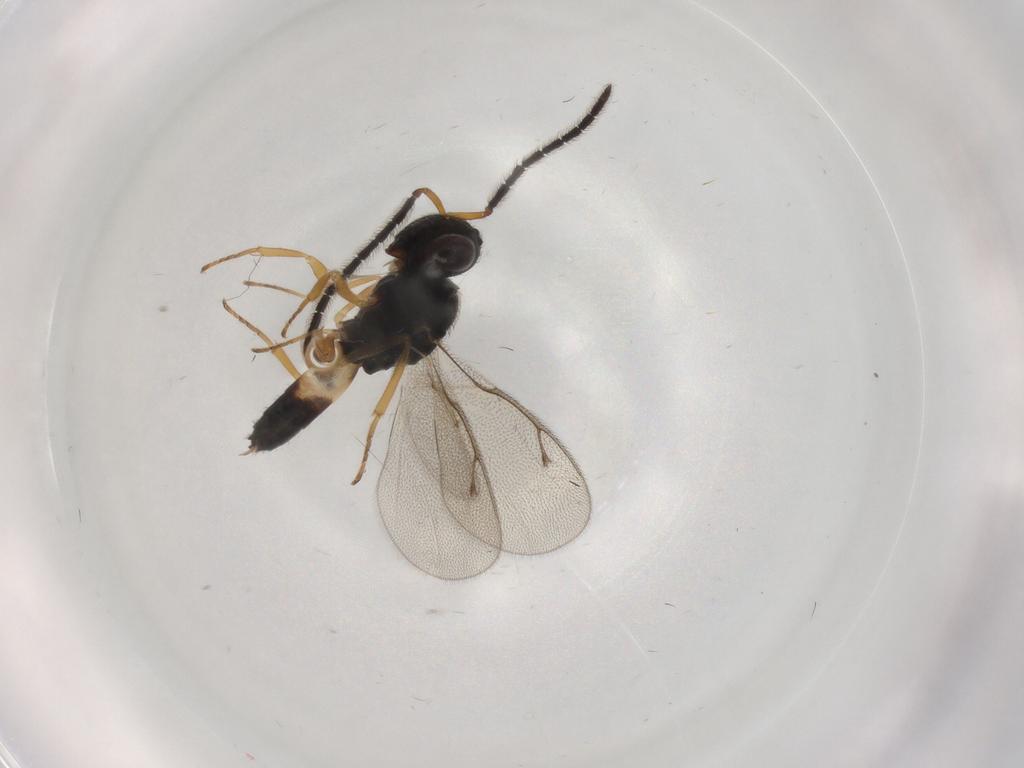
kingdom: Animalia
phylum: Arthropoda
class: Insecta
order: Hymenoptera
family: Pteromalidae
